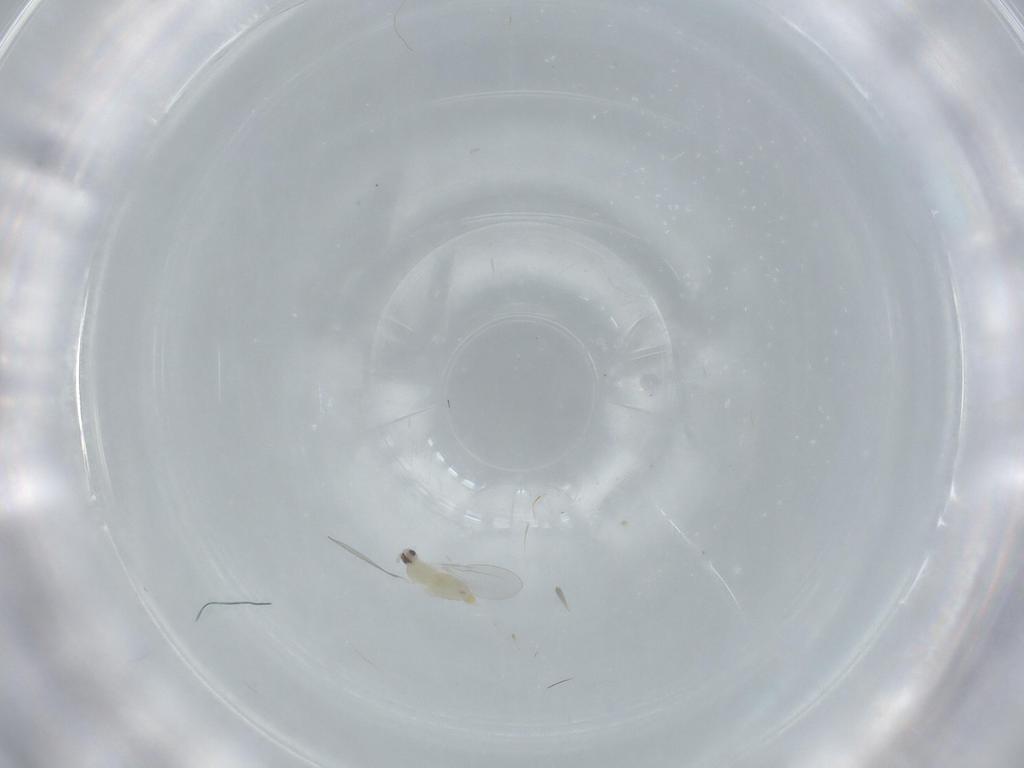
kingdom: Animalia
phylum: Arthropoda
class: Insecta
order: Diptera
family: Cecidomyiidae
